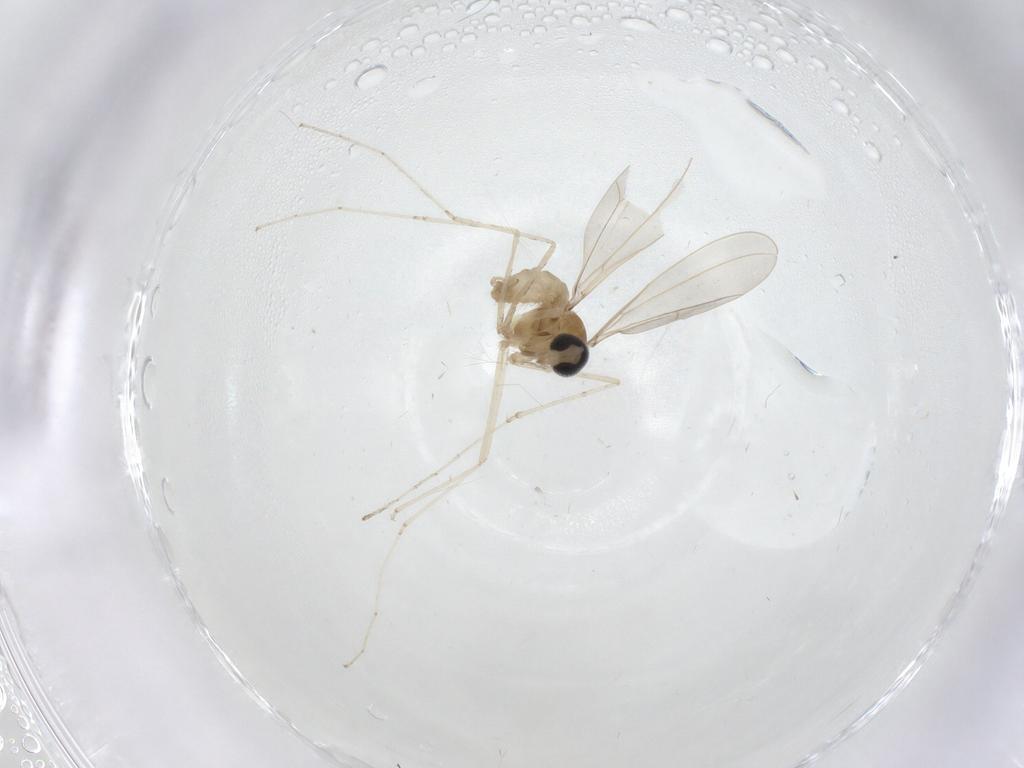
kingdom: Animalia
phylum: Arthropoda
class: Insecta
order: Diptera
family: Cecidomyiidae
